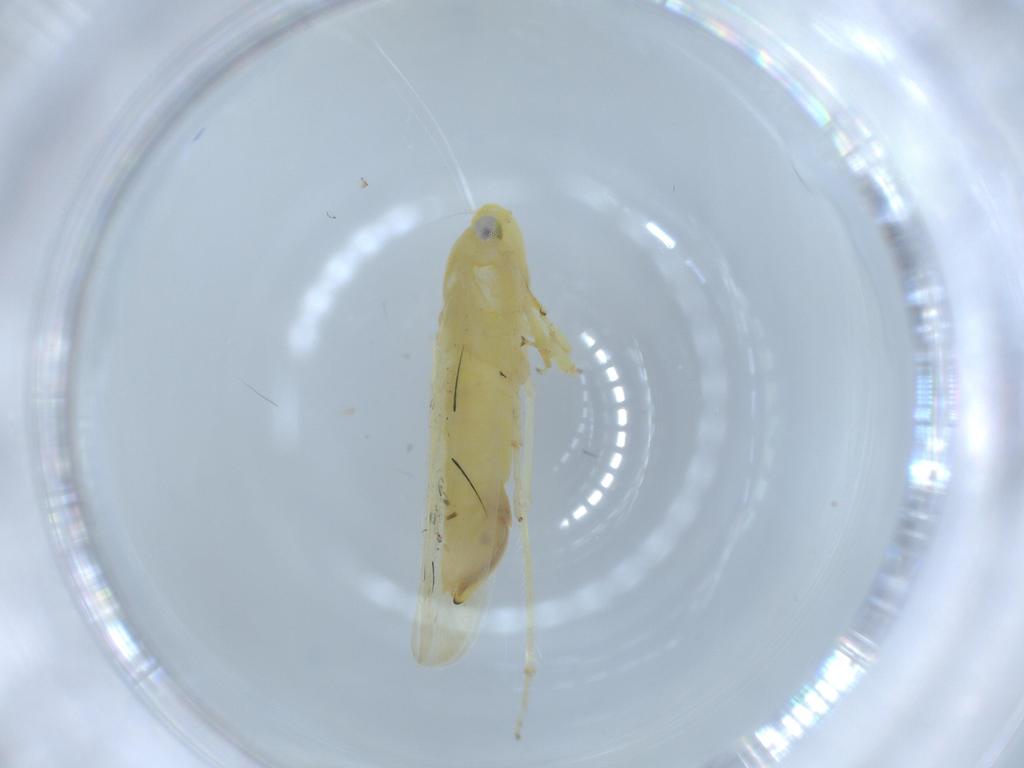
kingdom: Animalia
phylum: Arthropoda
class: Insecta
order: Hemiptera
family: Cicadellidae
